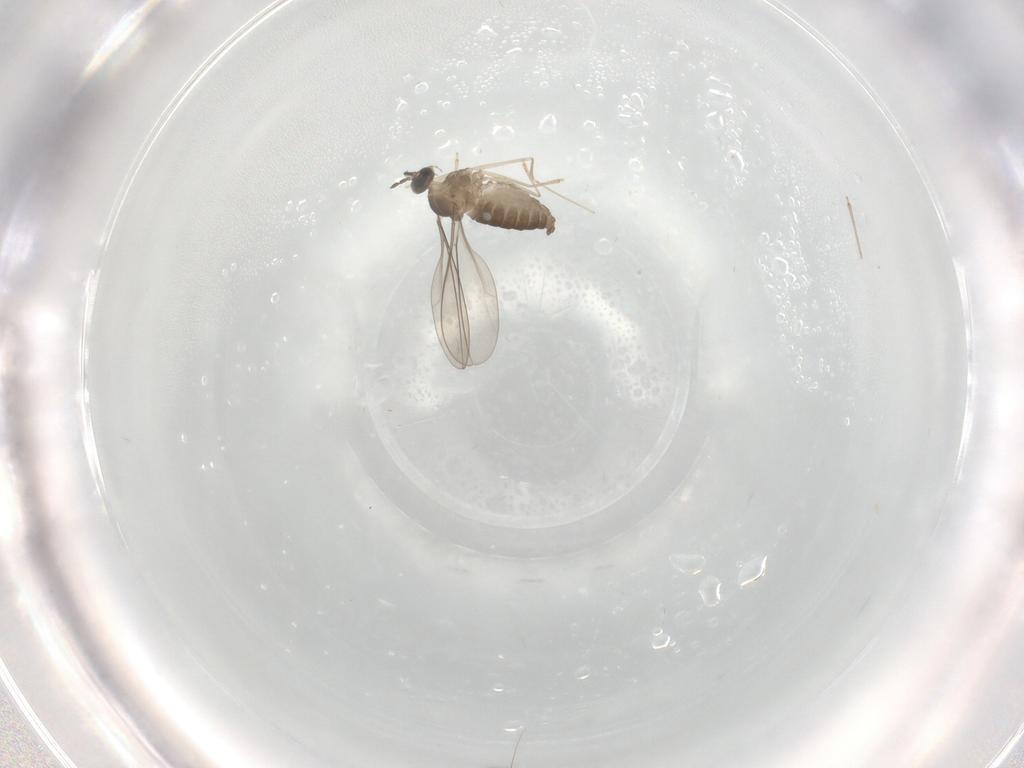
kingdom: Animalia
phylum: Arthropoda
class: Insecta
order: Diptera
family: Cecidomyiidae
